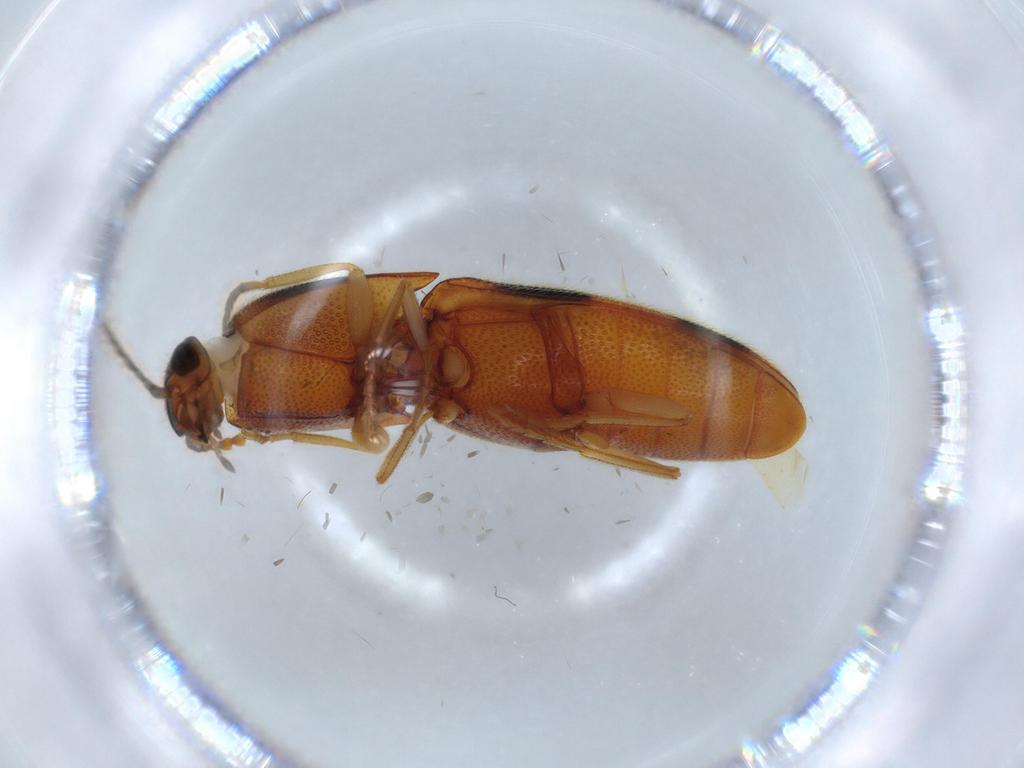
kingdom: Animalia
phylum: Arthropoda
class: Insecta
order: Coleoptera
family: Elateridae
